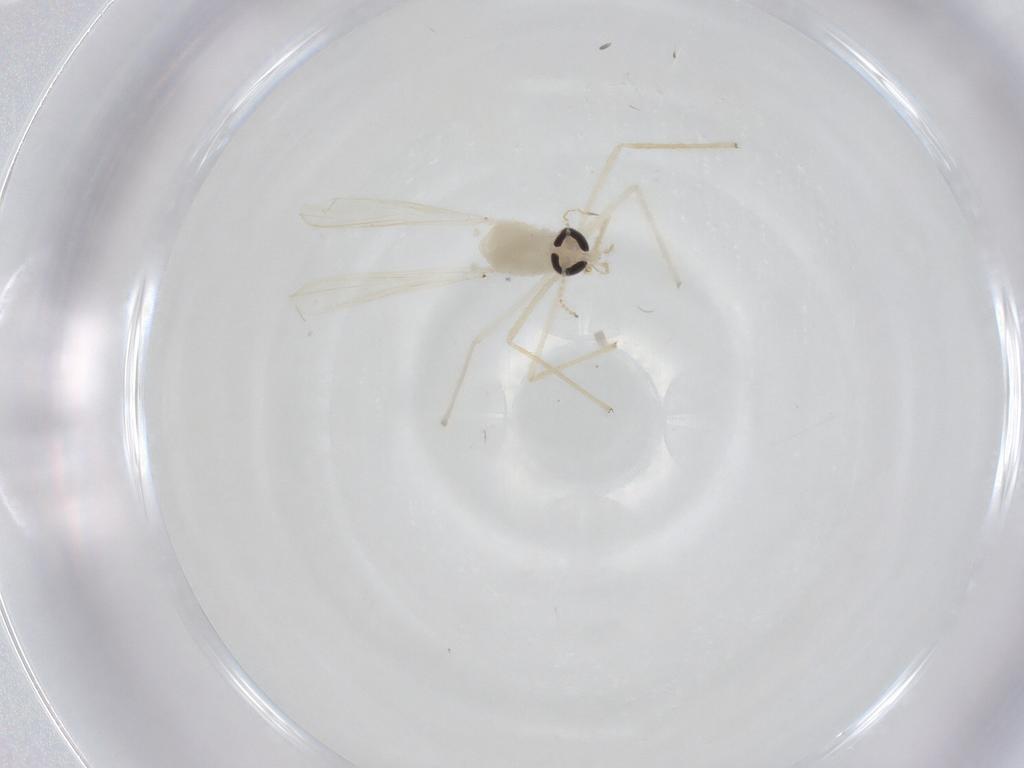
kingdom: Animalia
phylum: Arthropoda
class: Insecta
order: Diptera
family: Chironomidae
